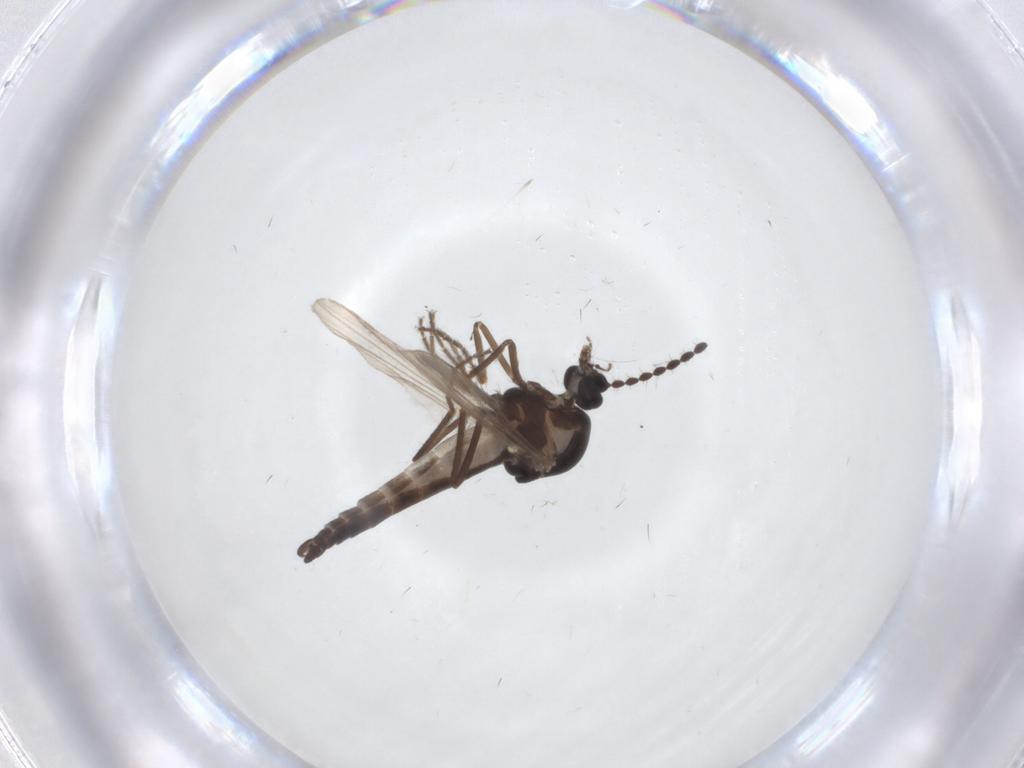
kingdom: Animalia
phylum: Arthropoda
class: Insecta
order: Diptera
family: Ceratopogonidae
